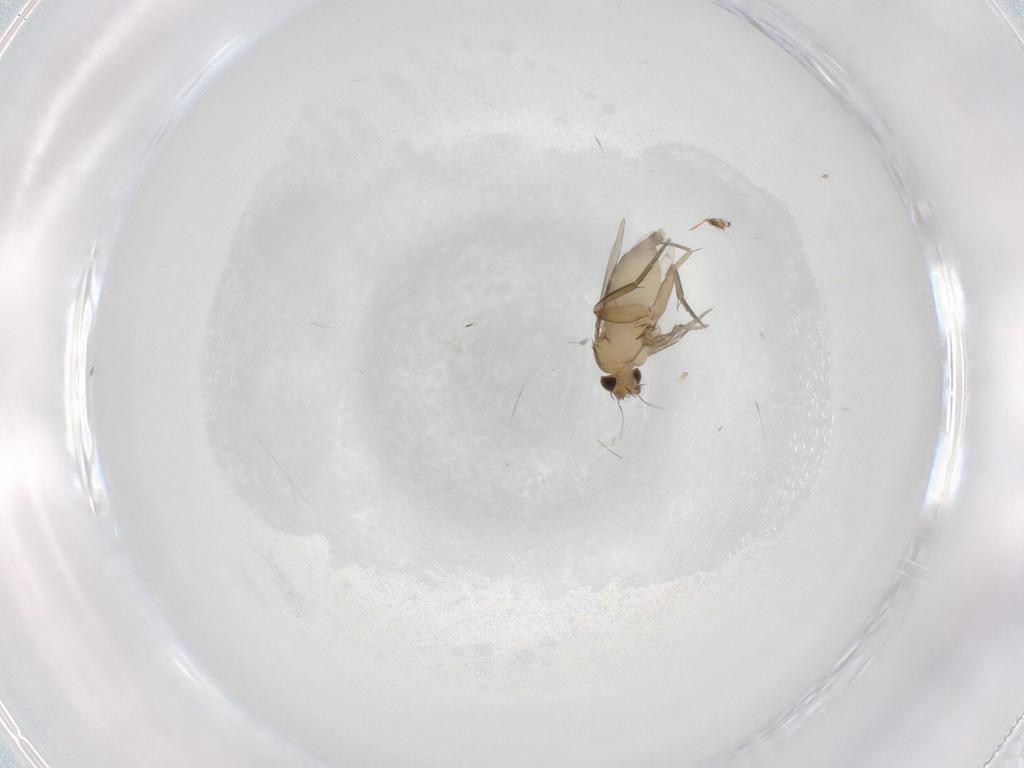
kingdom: Animalia
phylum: Arthropoda
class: Insecta
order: Diptera
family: Phoridae
